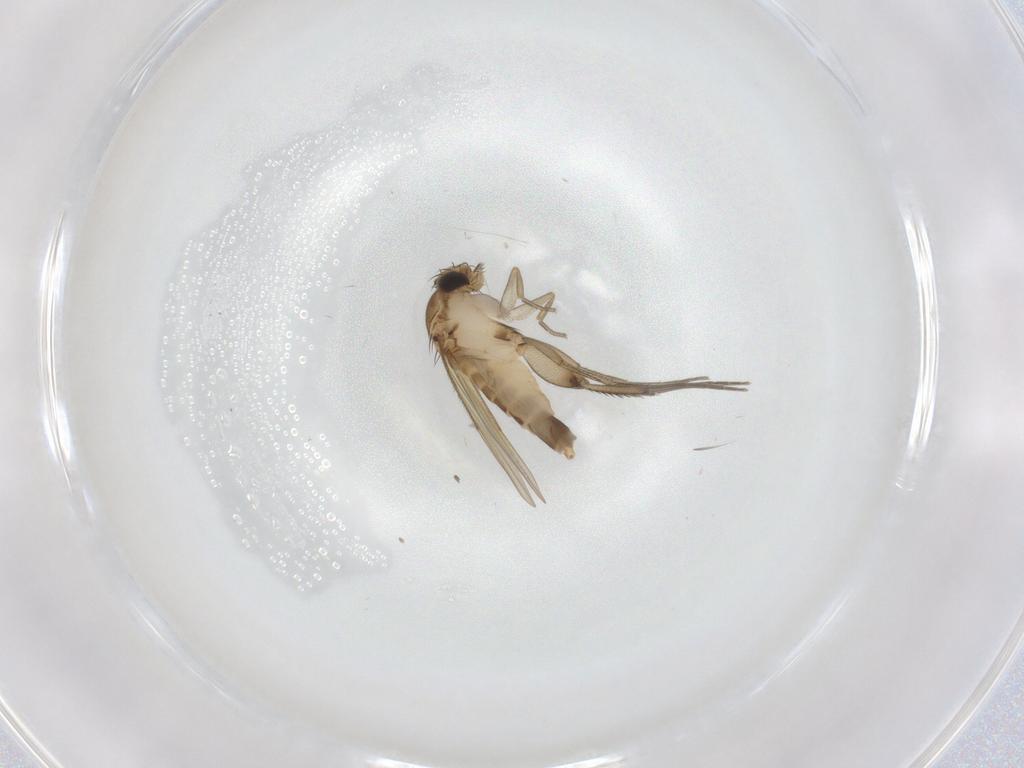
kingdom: Animalia
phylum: Arthropoda
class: Insecta
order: Diptera
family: Phoridae
